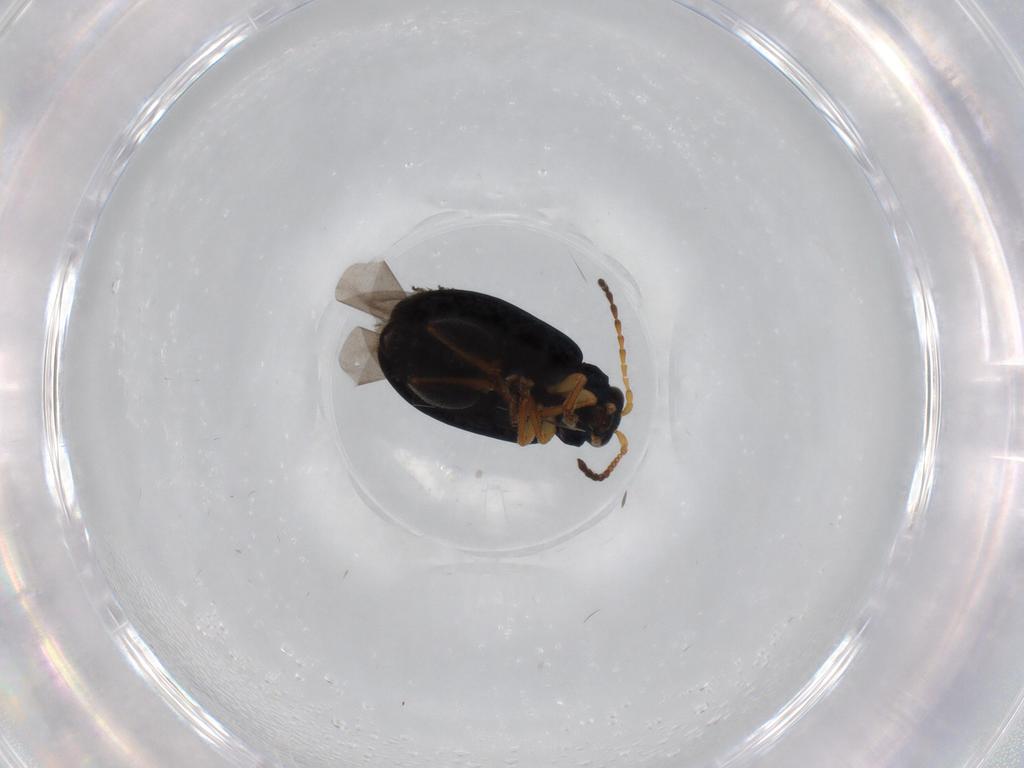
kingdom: Animalia
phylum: Arthropoda
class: Insecta
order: Coleoptera
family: Chrysomelidae
